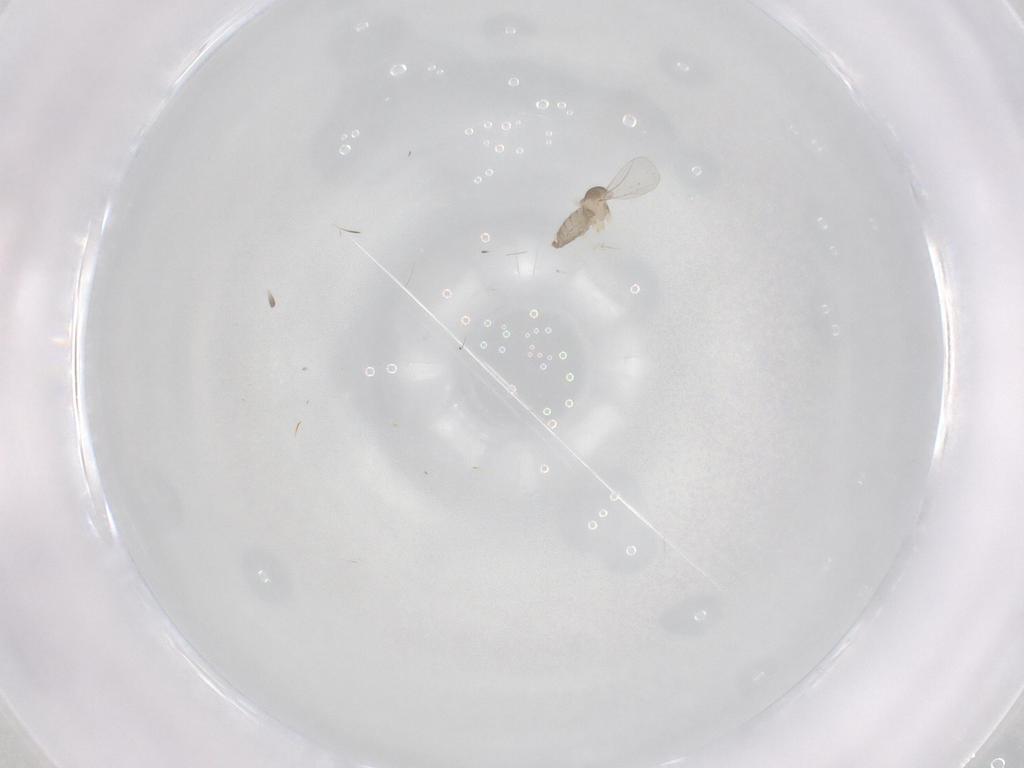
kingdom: Animalia
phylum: Arthropoda
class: Insecta
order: Diptera
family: Cecidomyiidae
